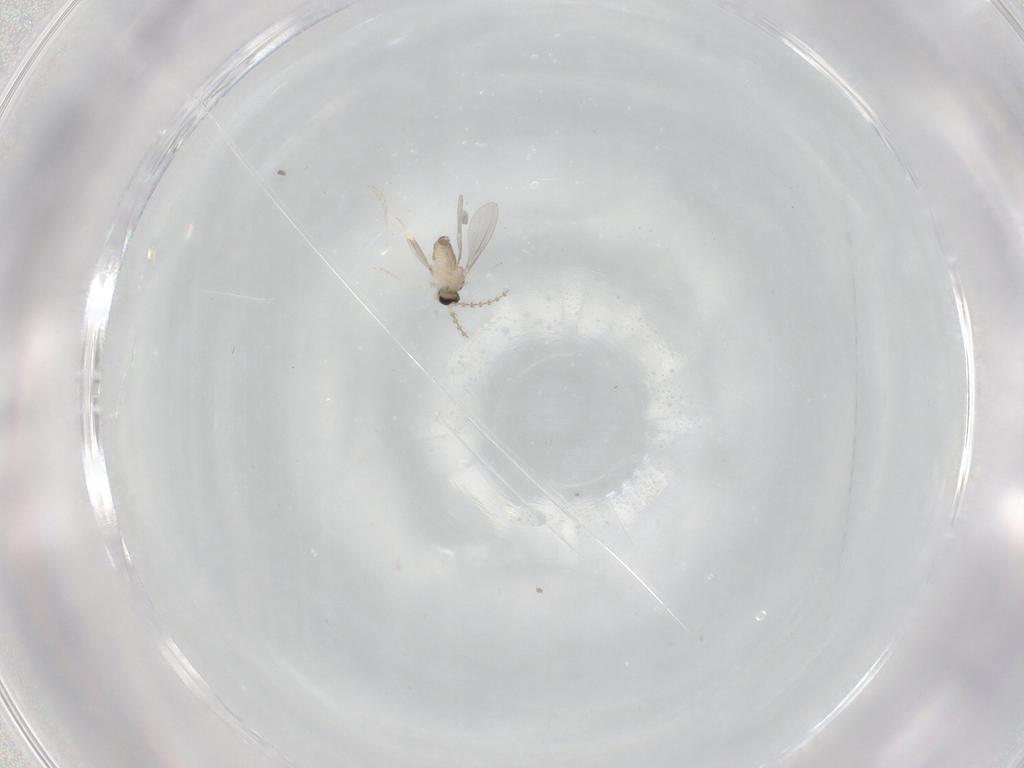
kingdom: Animalia
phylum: Arthropoda
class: Insecta
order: Diptera
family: Cecidomyiidae
